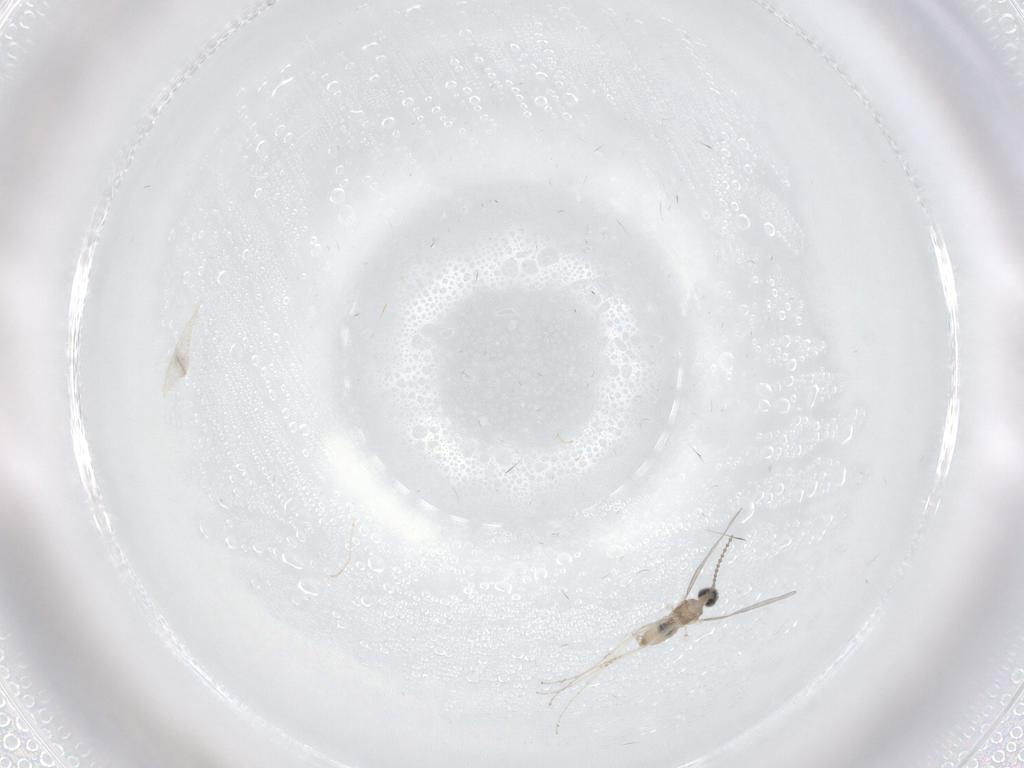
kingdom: Animalia
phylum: Arthropoda
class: Insecta
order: Diptera
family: Cecidomyiidae
